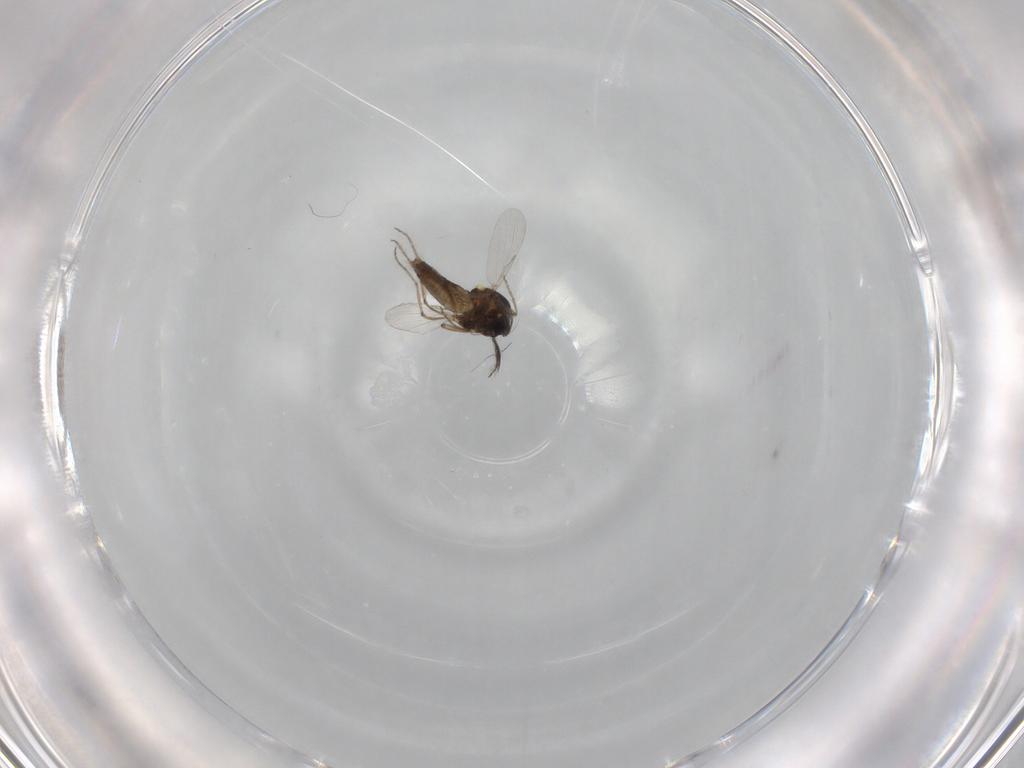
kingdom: Animalia
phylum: Arthropoda
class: Insecta
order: Diptera
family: Ceratopogonidae
